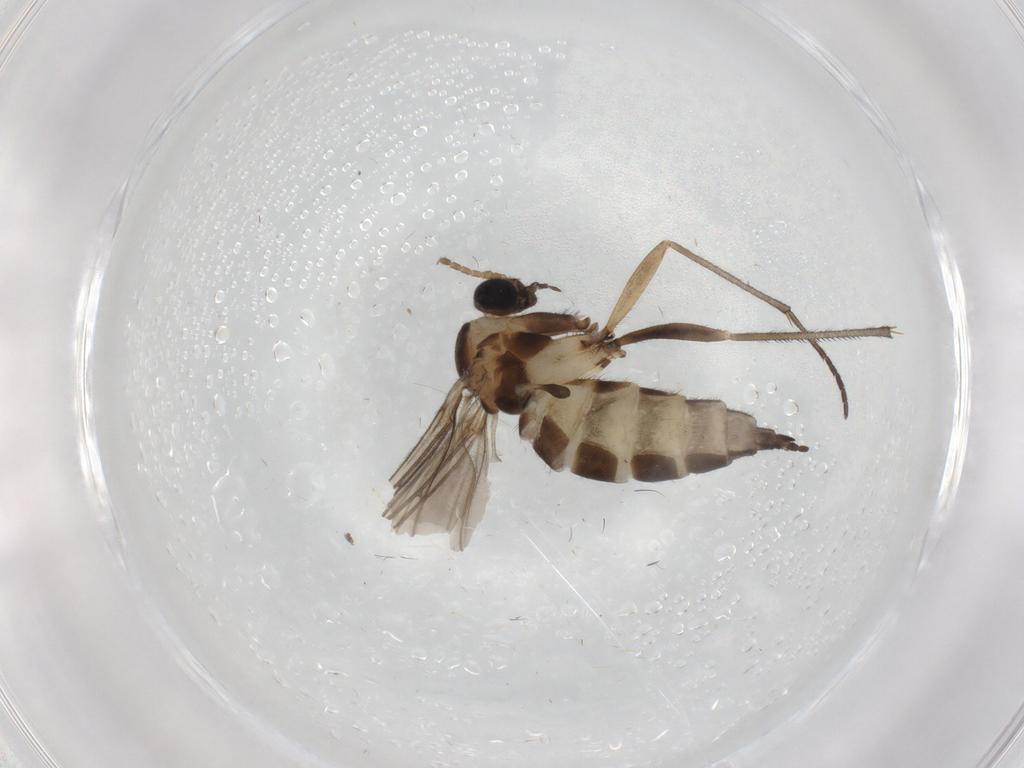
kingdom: Animalia
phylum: Arthropoda
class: Insecta
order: Diptera
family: Sciaridae
